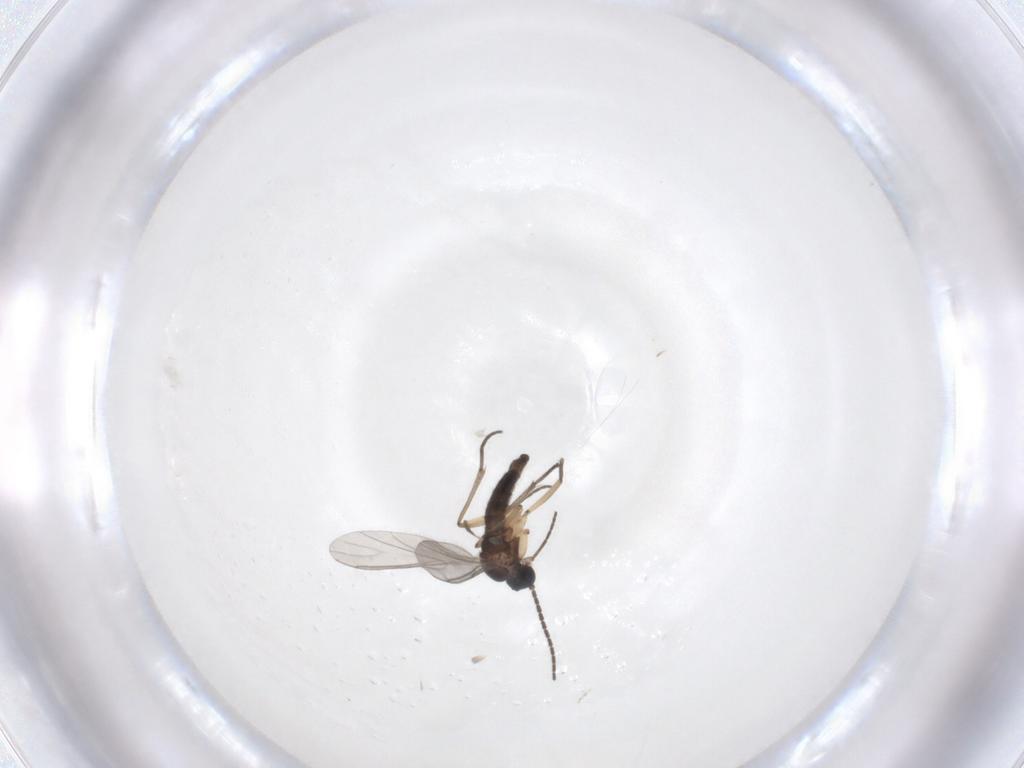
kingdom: Animalia
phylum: Arthropoda
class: Insecta
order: Diptera
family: Sciaridae
